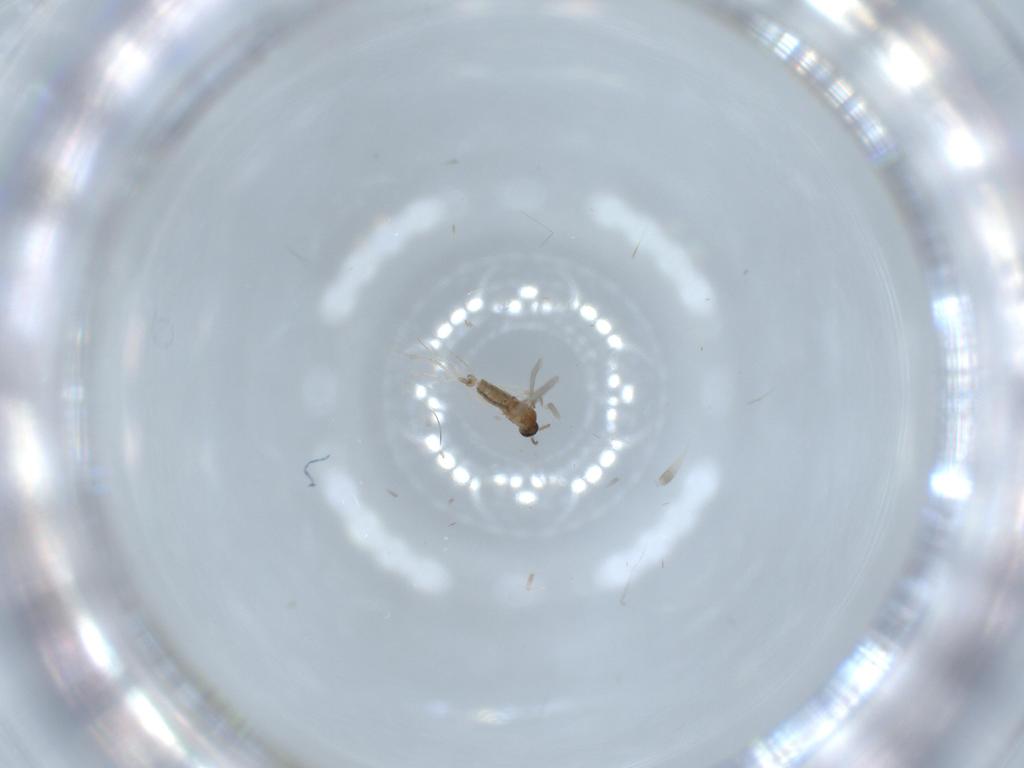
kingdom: Animalia
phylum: Arthropoda
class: Insecta
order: Diptera
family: Cecidomyiidae
